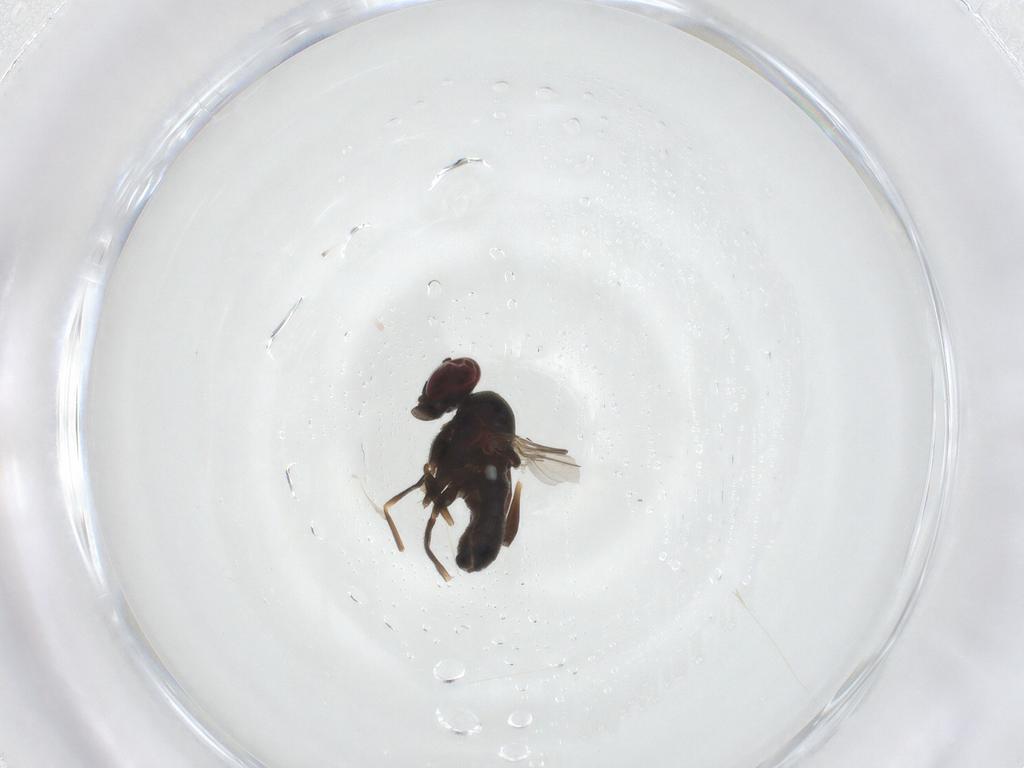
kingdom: Animalia
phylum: Arthropoda
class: Insecta
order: Diptera
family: Dolichopodidae
